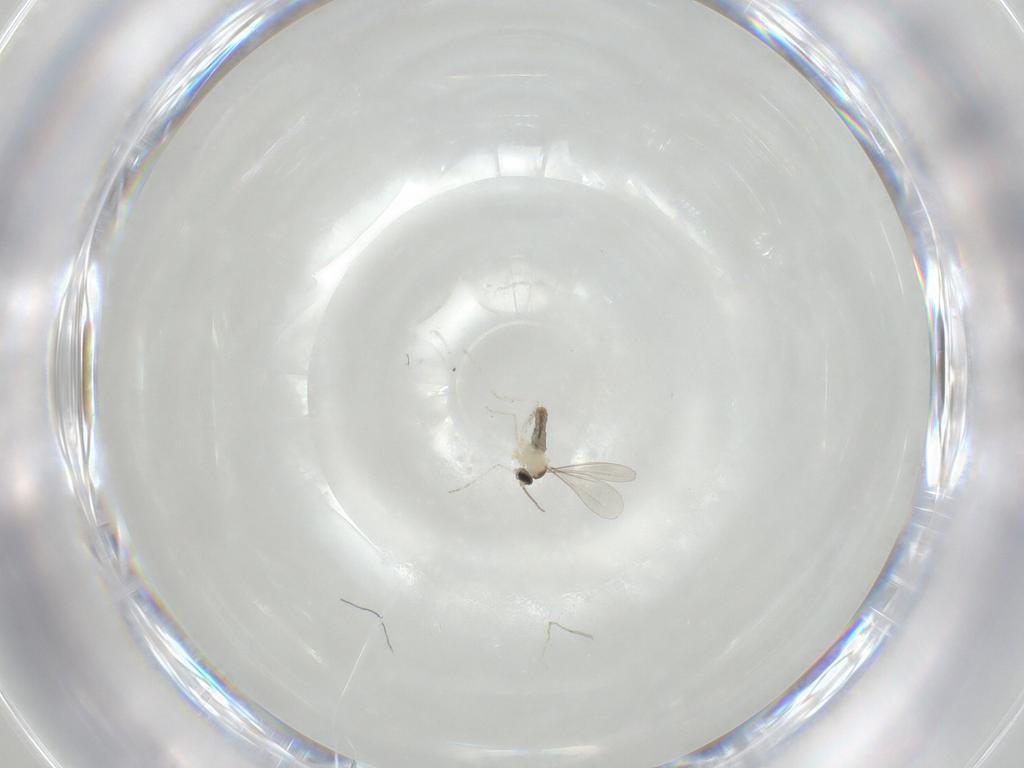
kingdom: Animalia
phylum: Arthropoda
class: Insecta
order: Diptera
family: Cecidomyiidae
